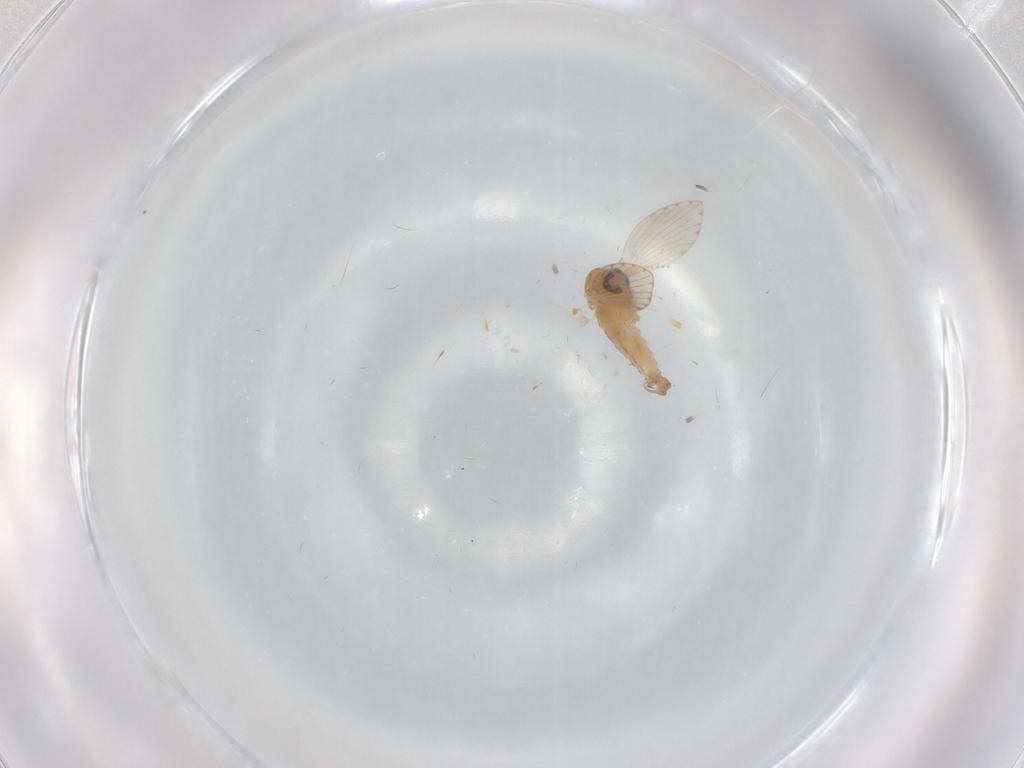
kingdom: Animalia
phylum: Arthropoda
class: Insecta
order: Diptera
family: Psychodidae
